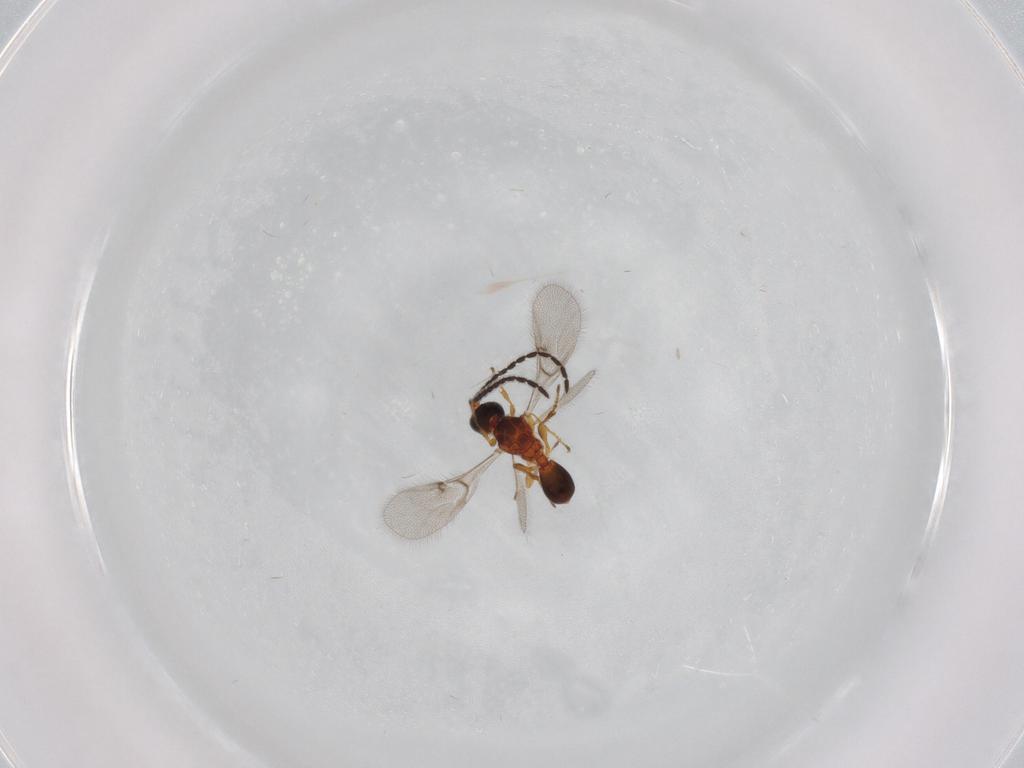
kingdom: Animalia
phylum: Arthropoda
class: Insecta
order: Hymenoptera
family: Diapriidae
